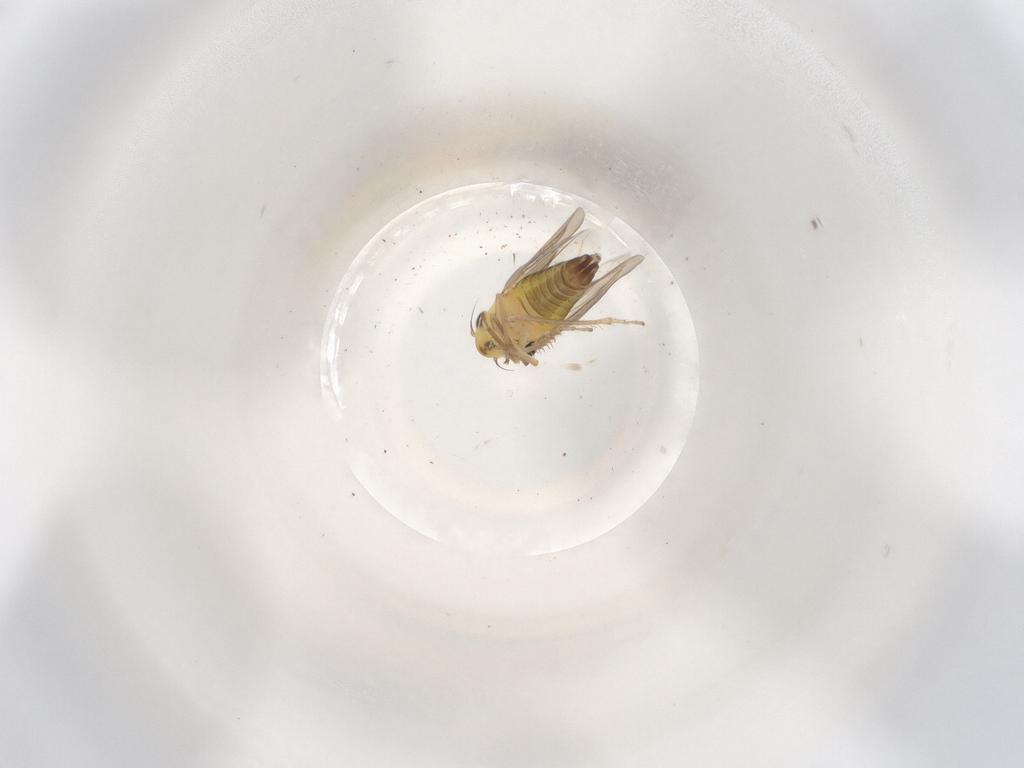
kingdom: Animalia
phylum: Arthropoda
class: Insecta
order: Hemiptera
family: Cicadellidae
